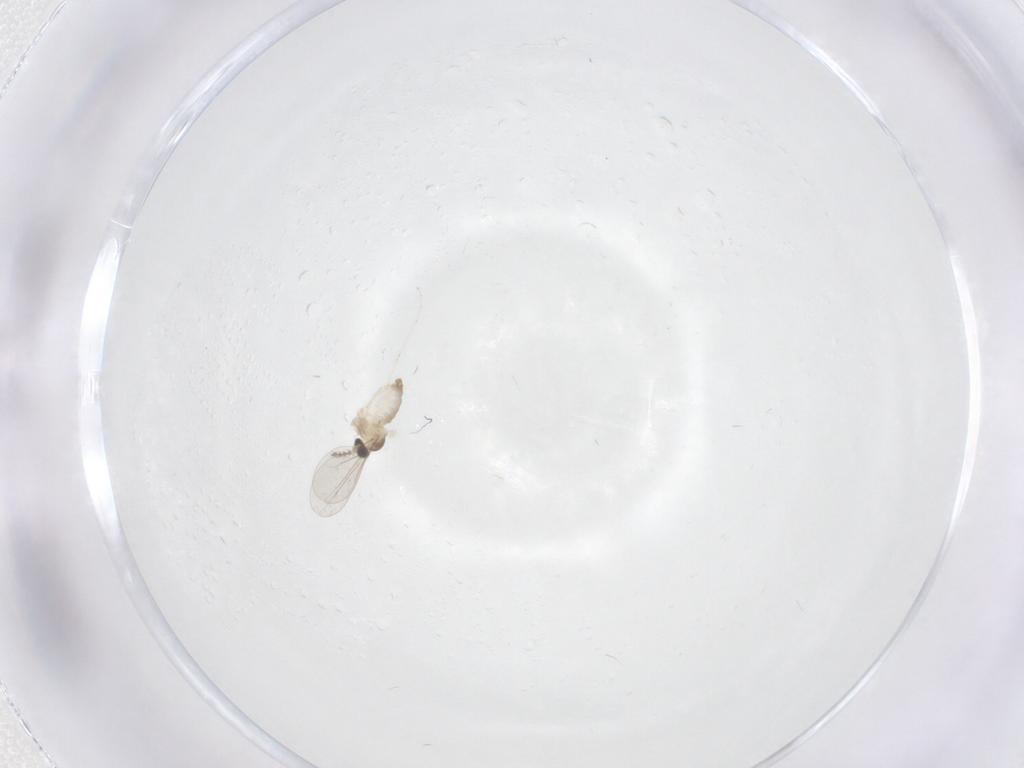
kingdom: Animalia
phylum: Arthropoda
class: Insecta
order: Diptera
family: Cecidomyiidae
